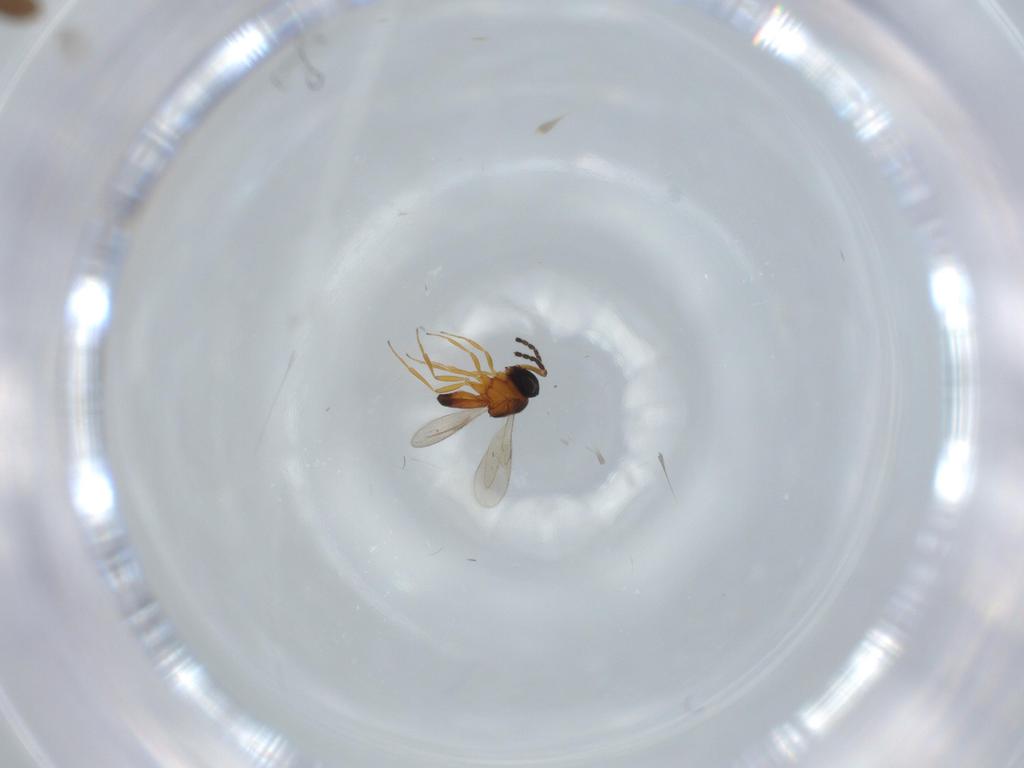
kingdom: Animalia
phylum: Arthropoda
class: Insecta
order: Hymenoptera
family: Scelionidae
